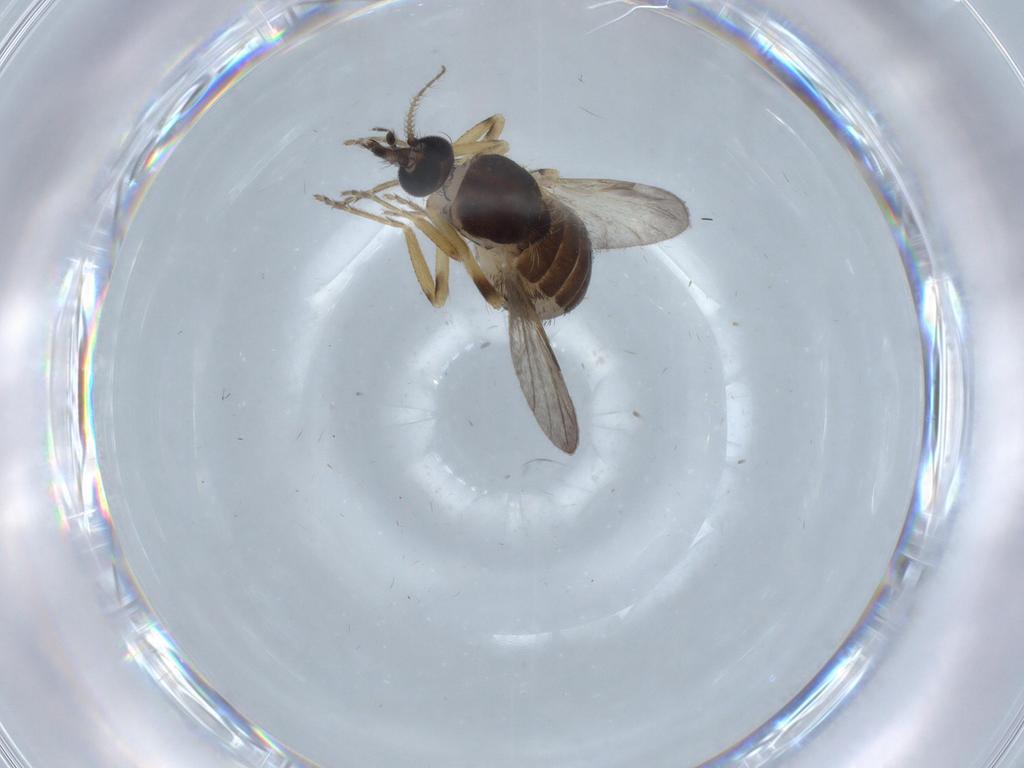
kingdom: Animalia
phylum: Arthropoda
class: Insecta
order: Diptera
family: Ceratopogonidae
